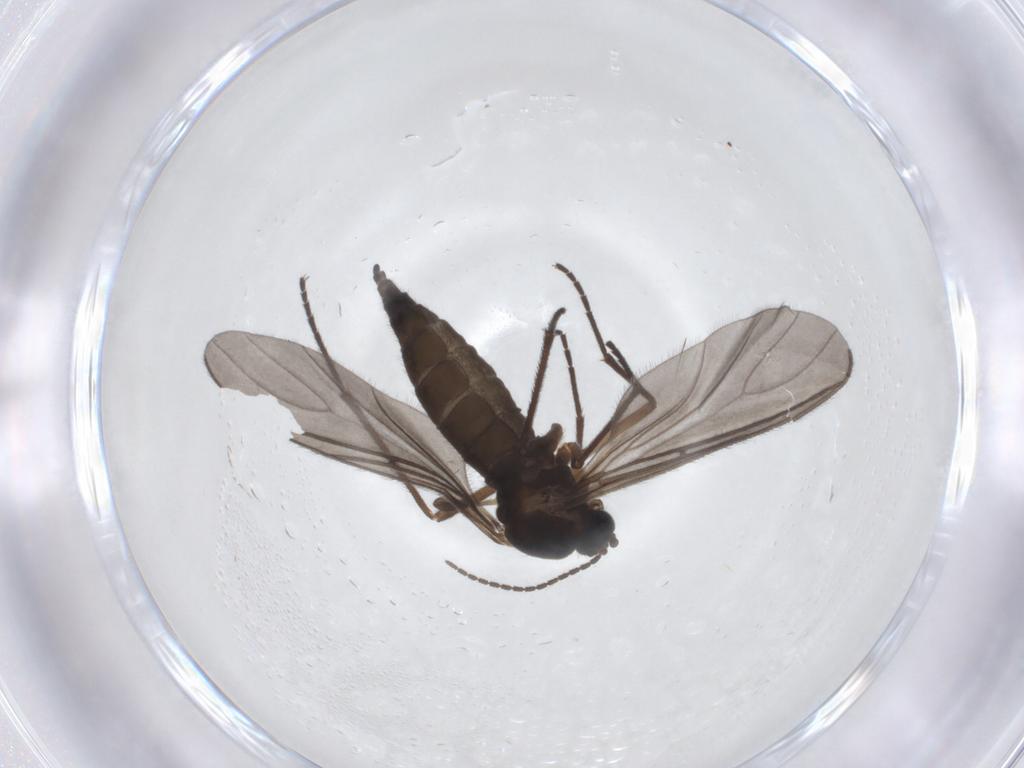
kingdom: Animalia
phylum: Arthropoda
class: Insecta
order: Diptera
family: Sciaridae
